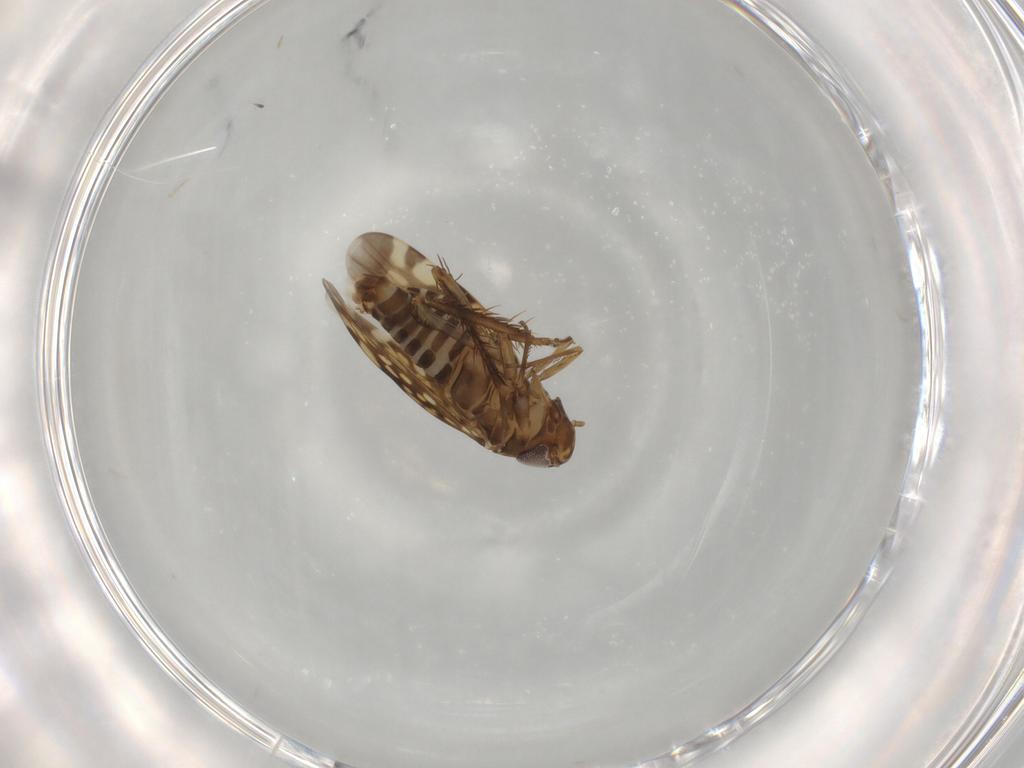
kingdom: Animalia
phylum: Arthropoda
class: Insecta
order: Hemiptera
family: Cicadellidae
